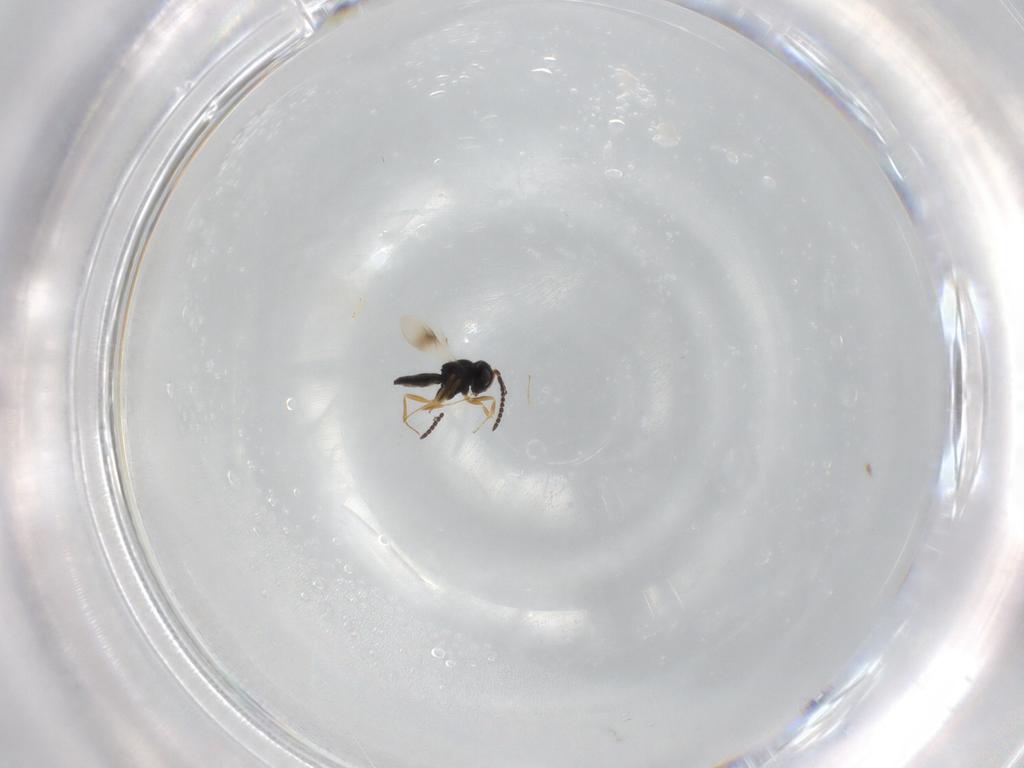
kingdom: Animalia
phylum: Arthropoda
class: Insecta
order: Hymenoptera
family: Scelionidae
